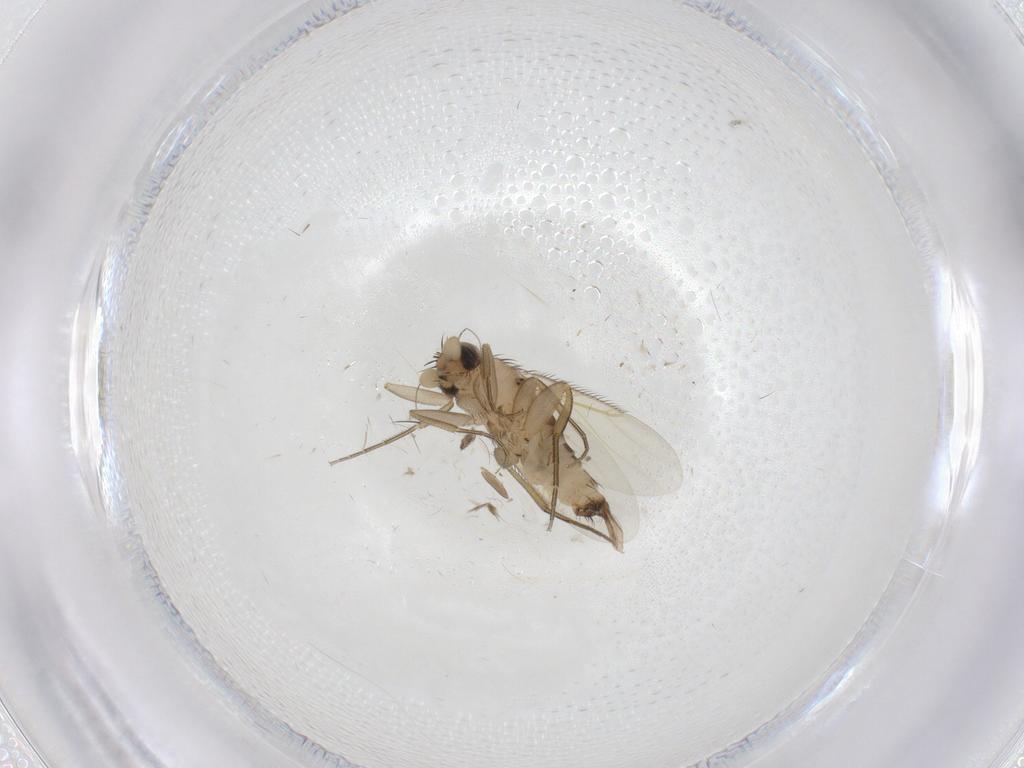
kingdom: Animalia
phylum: Arthropoda
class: Insecta
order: Diptera
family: Phoridae
